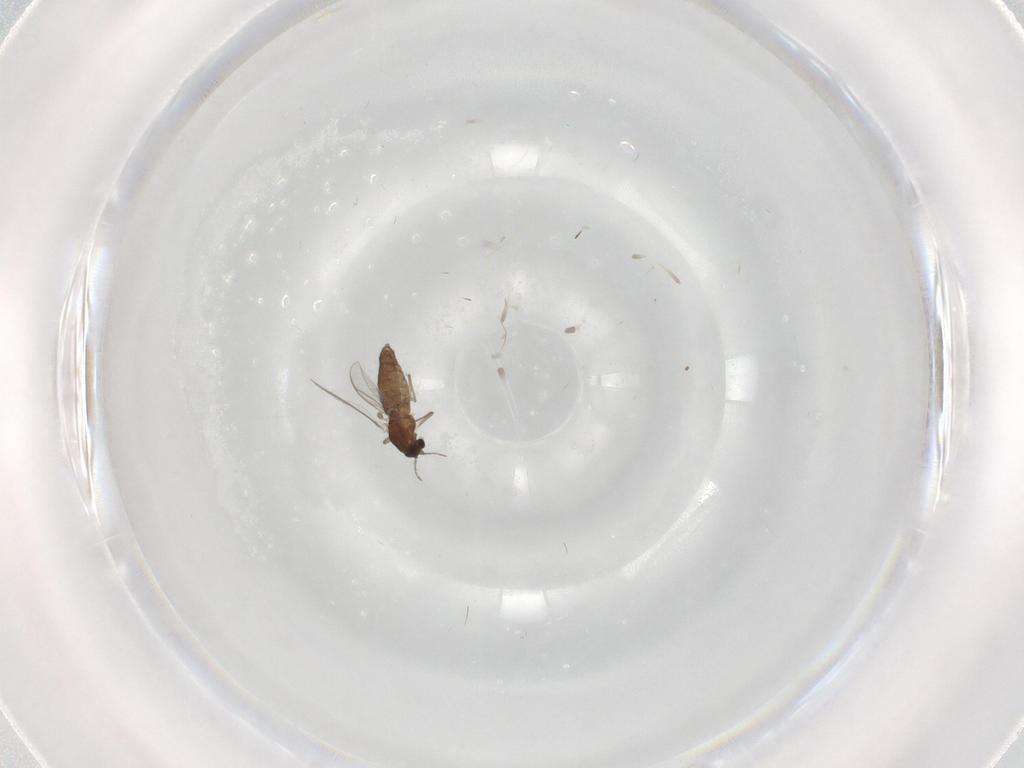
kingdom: Animalia
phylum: Arthropoda
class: Insecta
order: Diptera
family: Chironomidae
